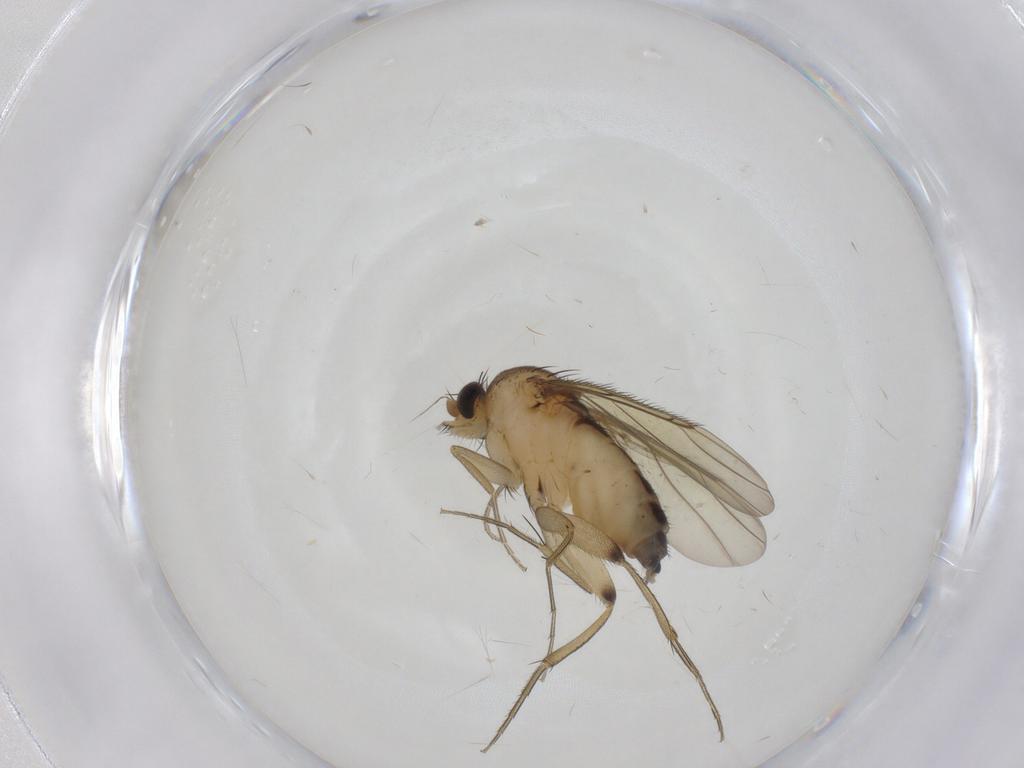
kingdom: Animalia
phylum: Arthropoda
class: Insecta
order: Diptera
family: Phoridae
